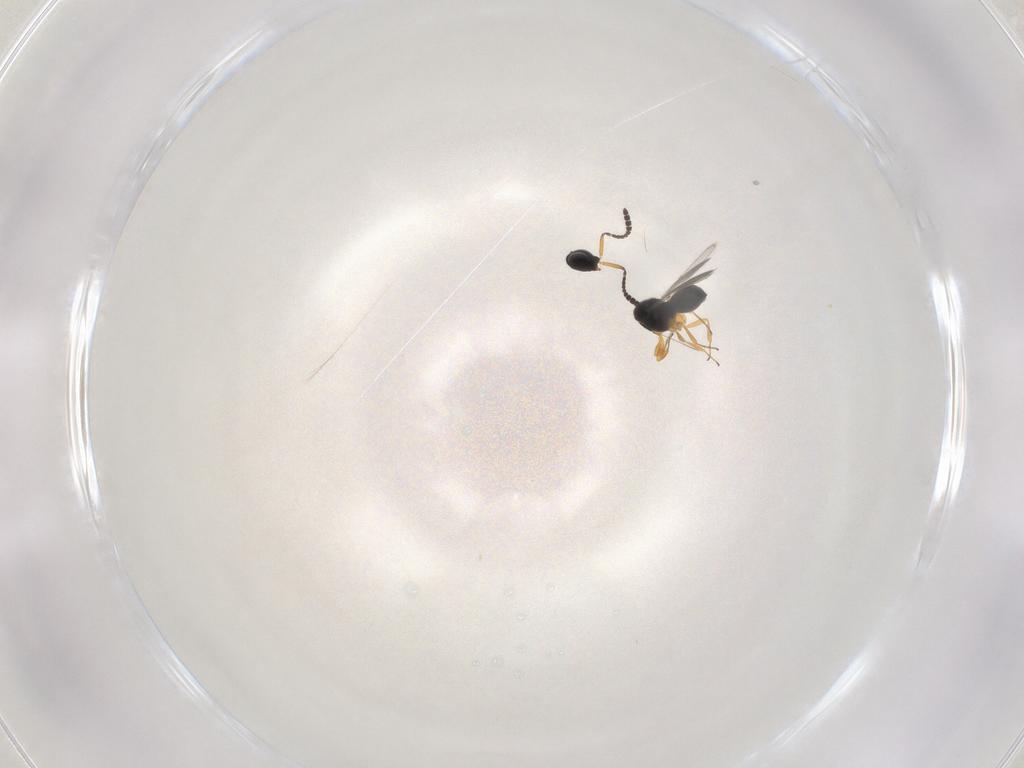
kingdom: Animalia
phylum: Arthropoda
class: Insecta
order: Hymenoptera
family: Scelionidae
